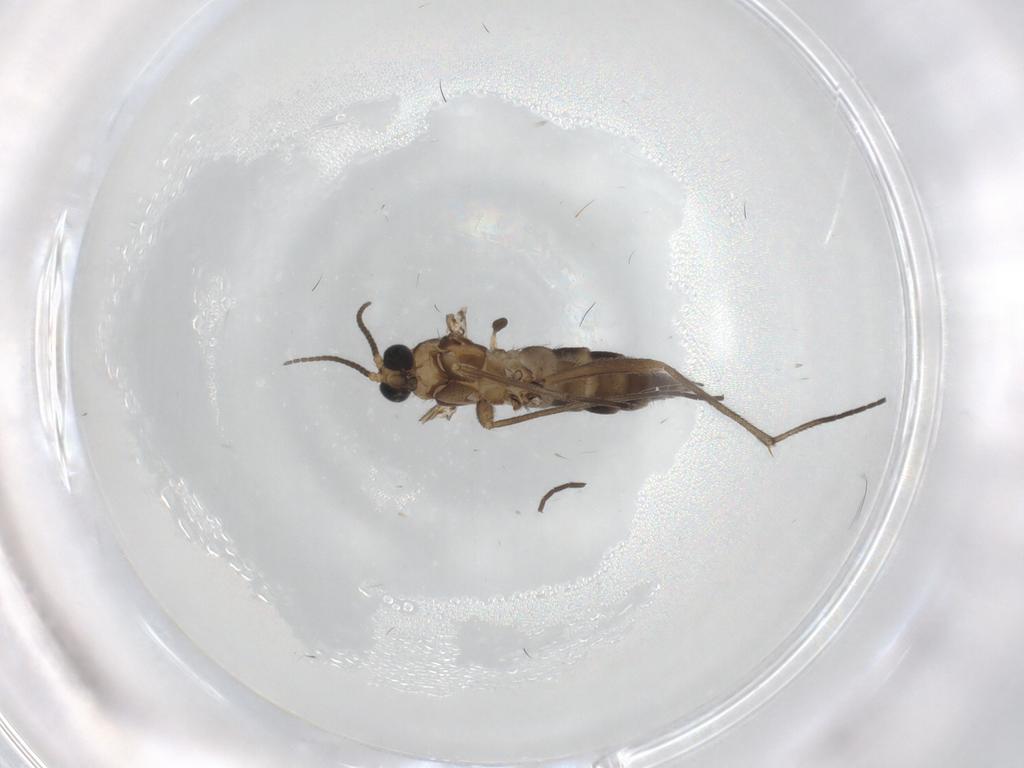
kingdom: Animalia
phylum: Arthropoda
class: Insecta
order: Diptera
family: Sciaridae
